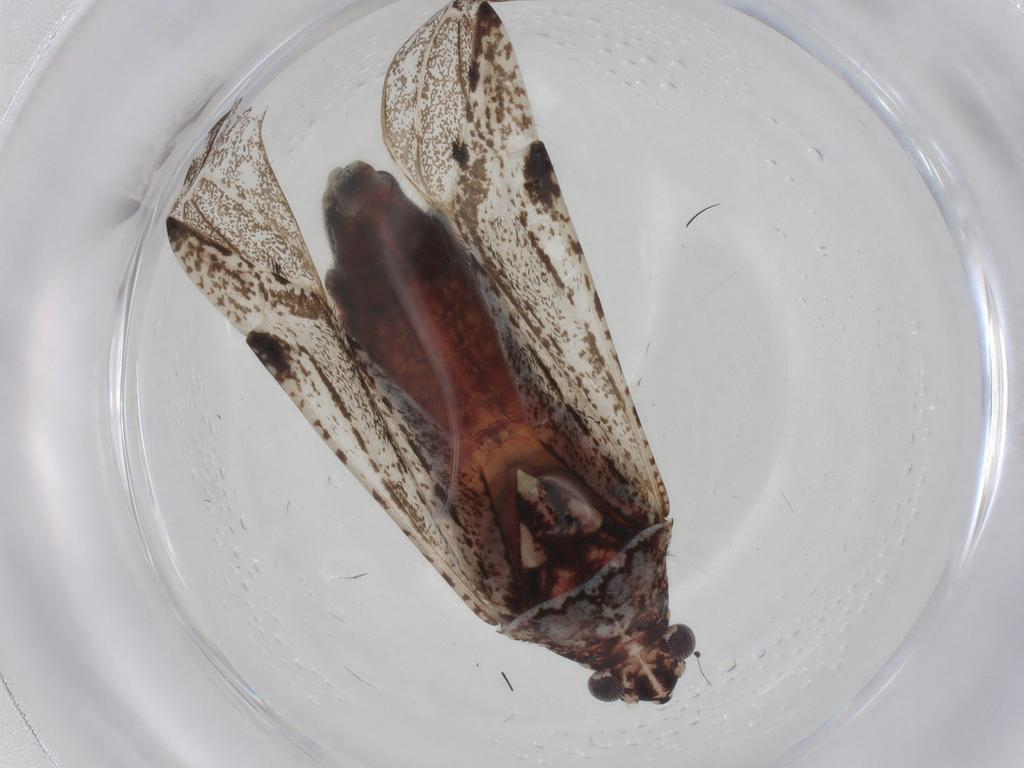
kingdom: Animalia
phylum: Arthropoda
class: Insecta
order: Hemiptera
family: Miridae
